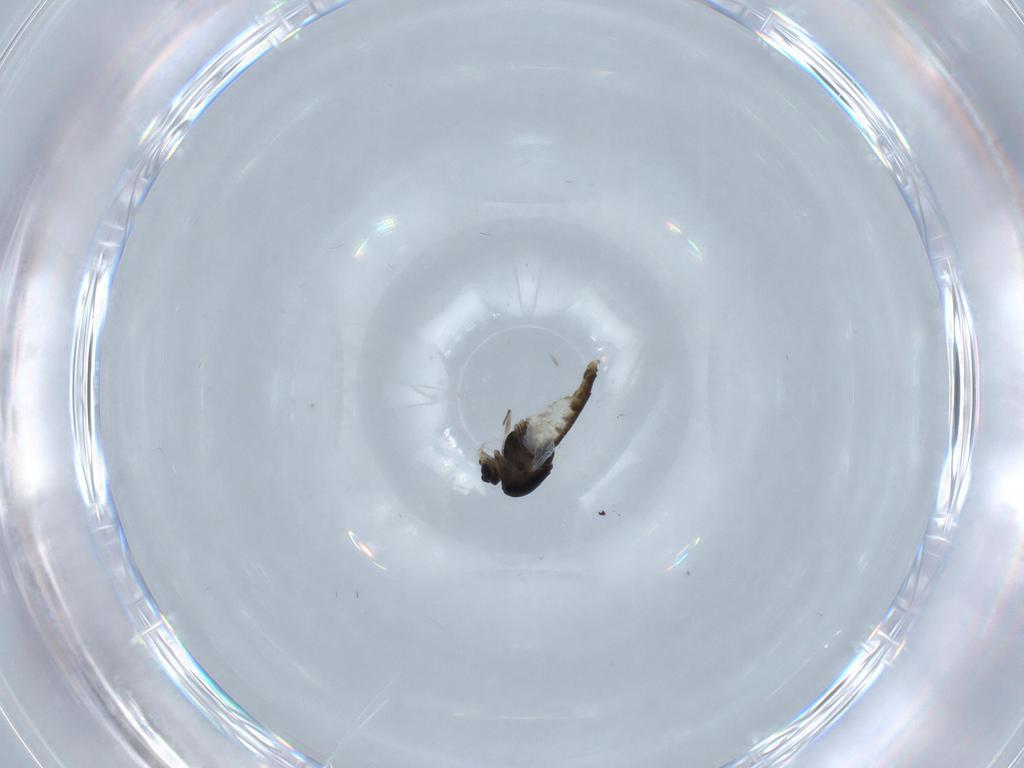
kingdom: Animalia
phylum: Arthropoda
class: Insecta
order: Diptera
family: Chironomidae
